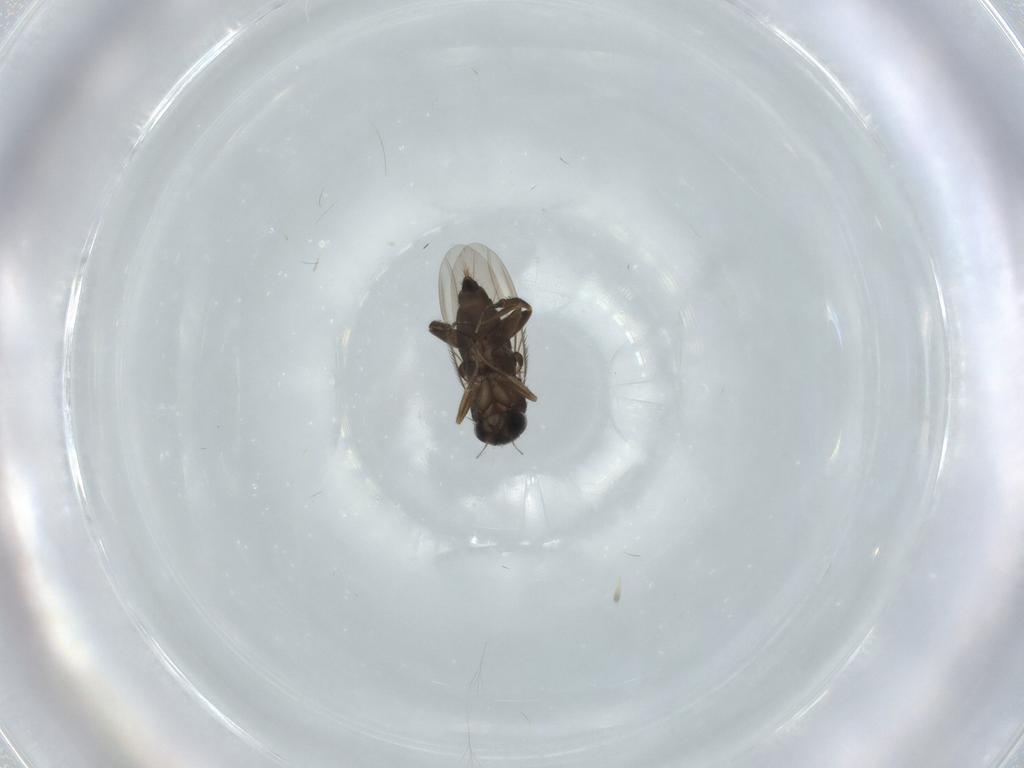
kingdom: Animalia
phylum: Arthropoda
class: Insecta
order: Diptera
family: Phoridae
